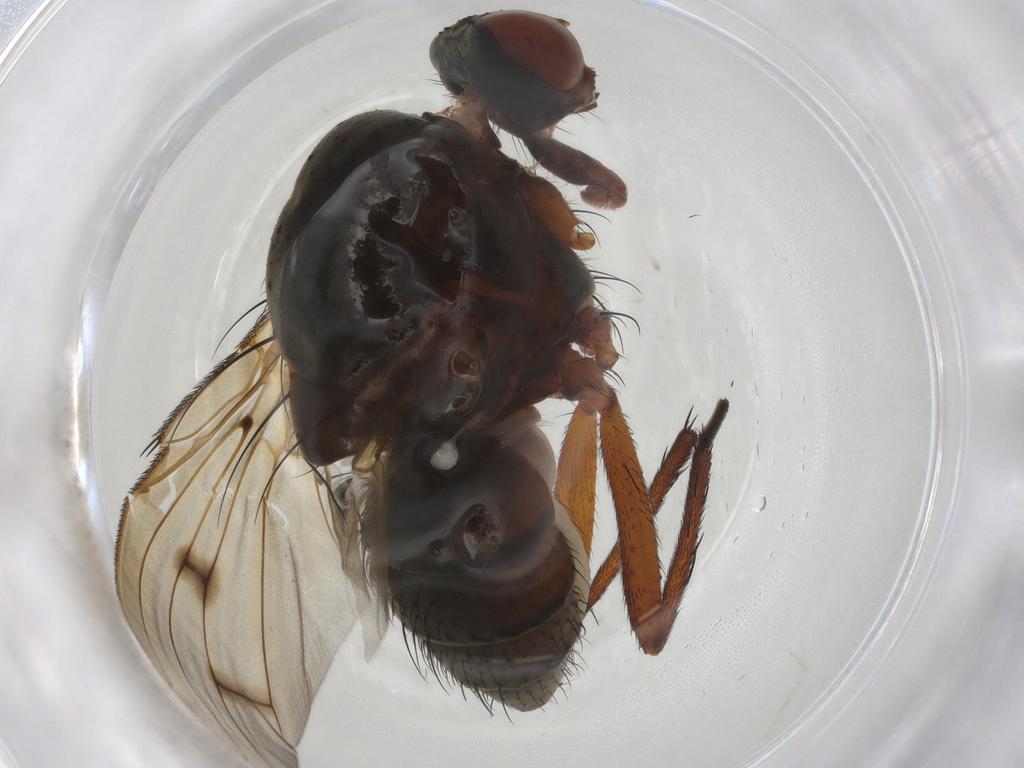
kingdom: Animalia
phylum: Arthropoda
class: Insecta
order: Diptera
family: Anthomyiidae
